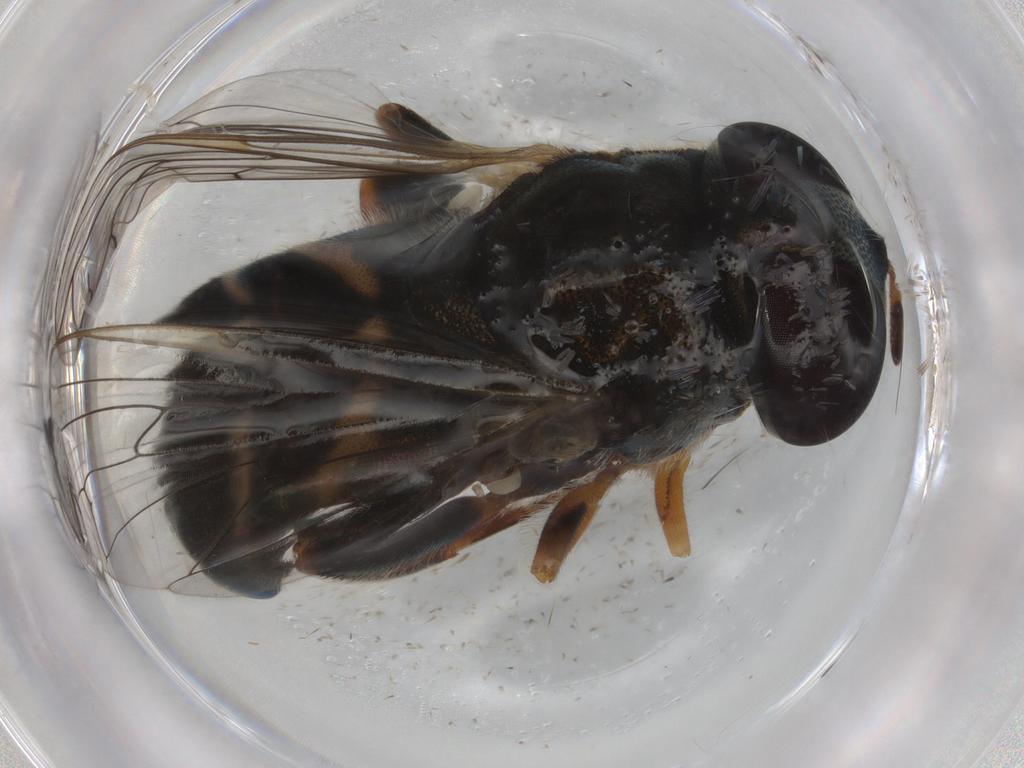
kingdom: Animalia
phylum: Arthropoda
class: Insecta
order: Diptera
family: Syrphidae
